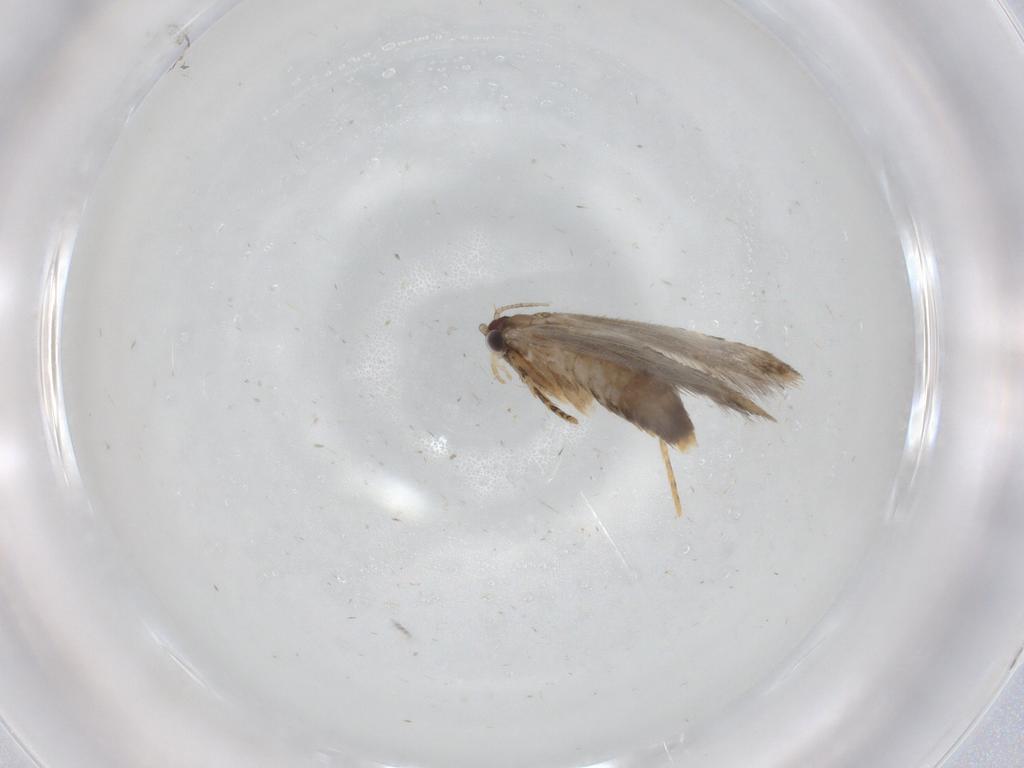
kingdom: Animalia
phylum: Arthropoda
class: Insecta
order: Lepidoptera
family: Tineidae
